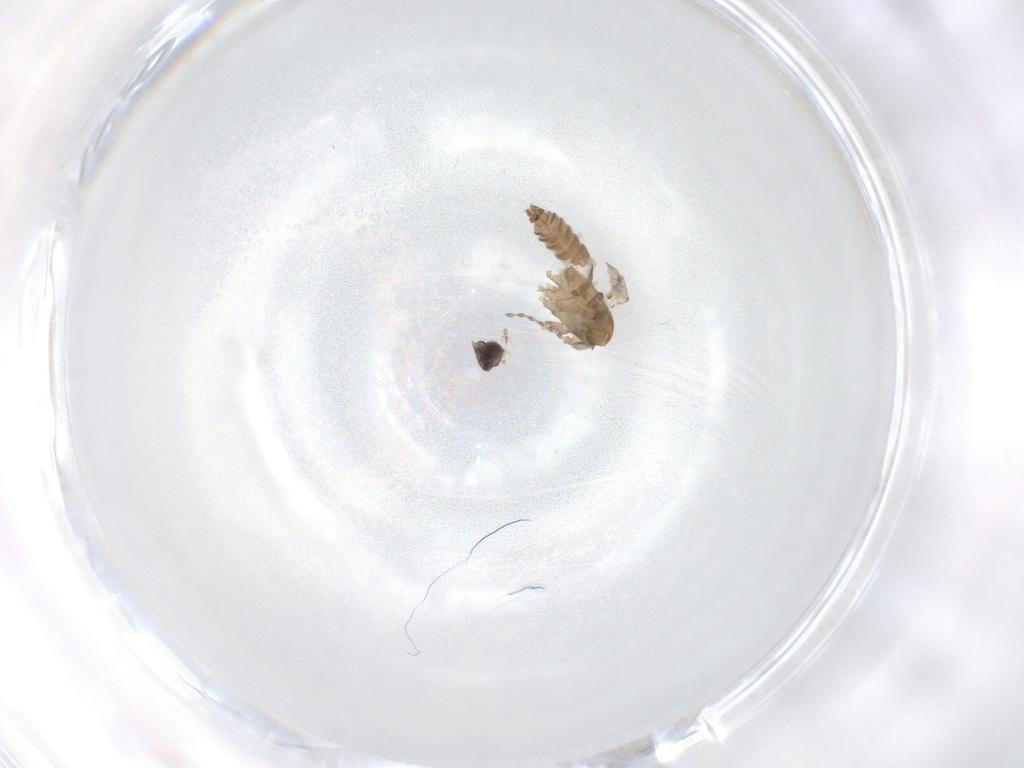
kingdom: Animalia
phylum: Arthropoda
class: Insecta
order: Diptera
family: Psychodidae
